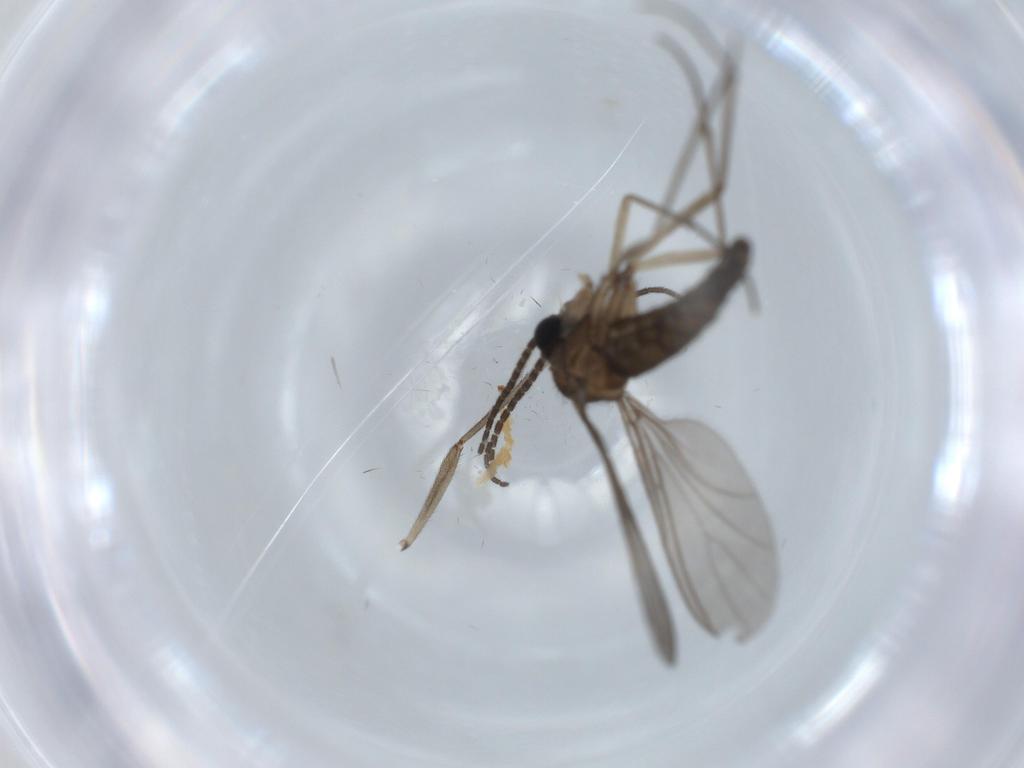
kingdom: Animalia
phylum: Arthropoda
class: Insecta
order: Diptera
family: Sciaridae
